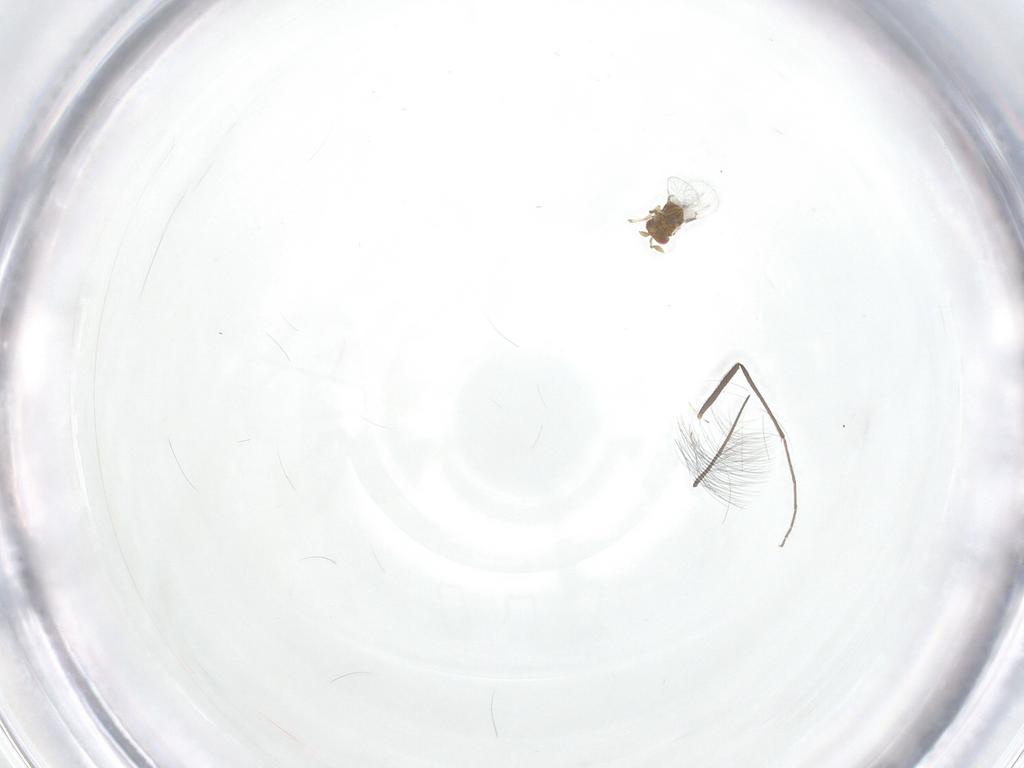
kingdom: Animalia
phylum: Arthropoda
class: Insecta
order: Hymenoptera
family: Trichogrammatidae
